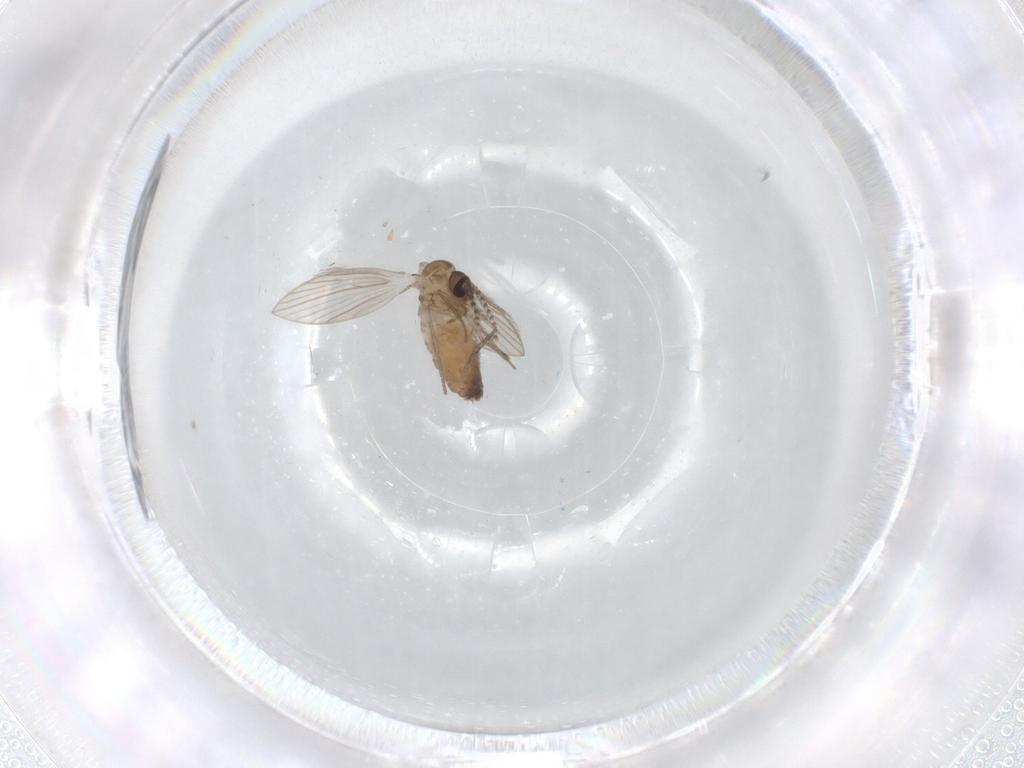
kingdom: Animalia
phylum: Arthropoda
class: Insecta
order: Diptera
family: Psychodidae
